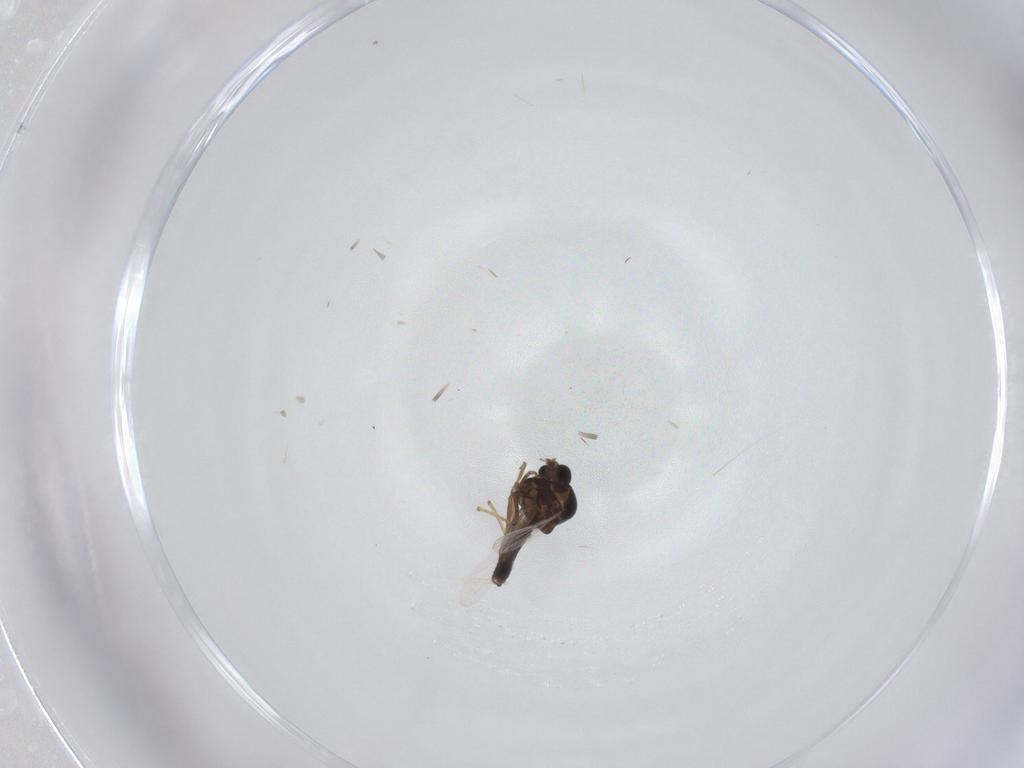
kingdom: Animalia
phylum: Arthropoda
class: Insecta
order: Diptera
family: Ceratopogonidae
